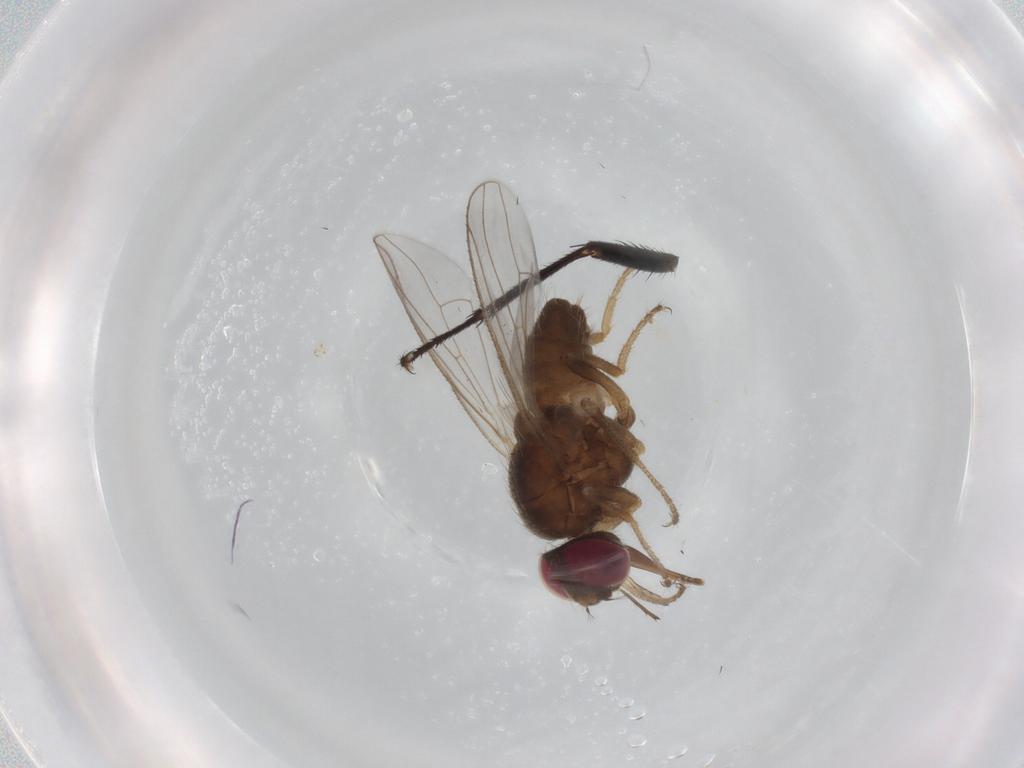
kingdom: Animalia
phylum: Arthropoda
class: Insecta
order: Diptera
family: Muscidae
